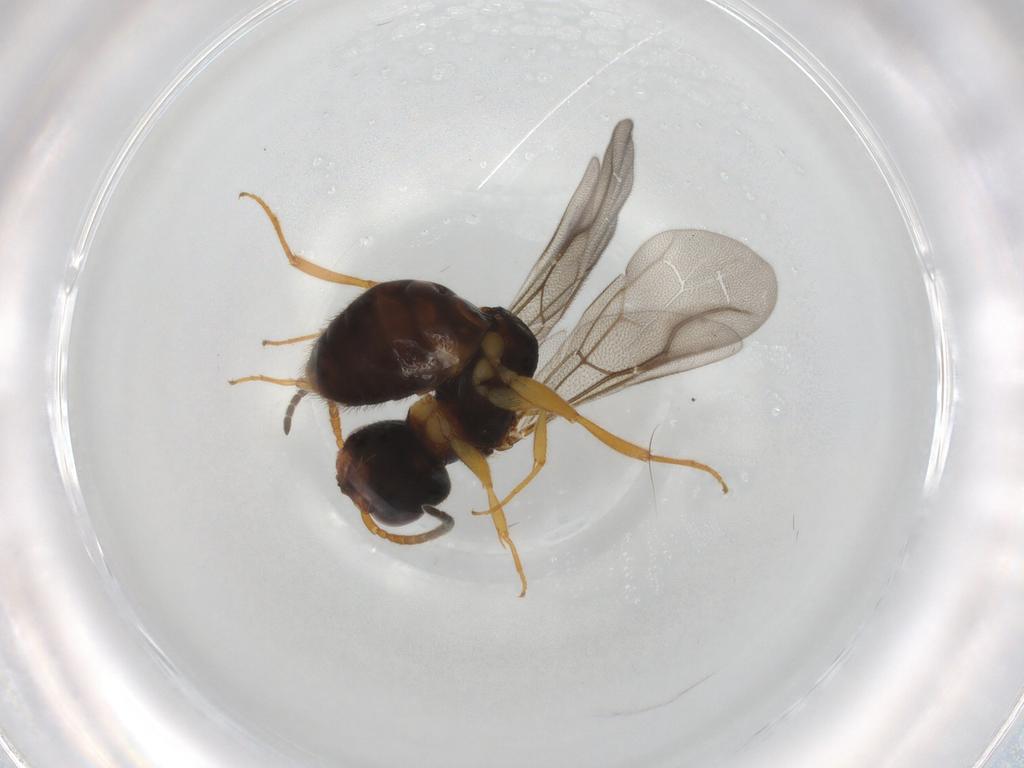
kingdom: Animalia
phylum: Arthropoda
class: Insecta
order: Hymenoptera
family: Bethylidae
